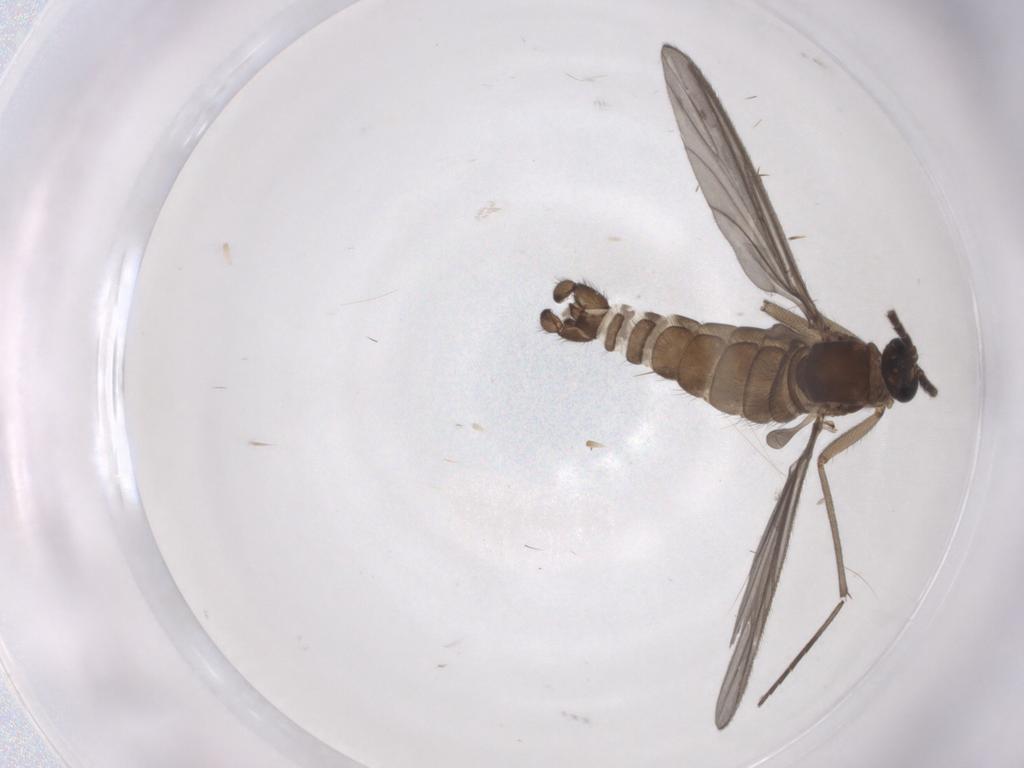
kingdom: Animalia
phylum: Arthropoda
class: Insecta
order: Diptera
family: Sciaridae
